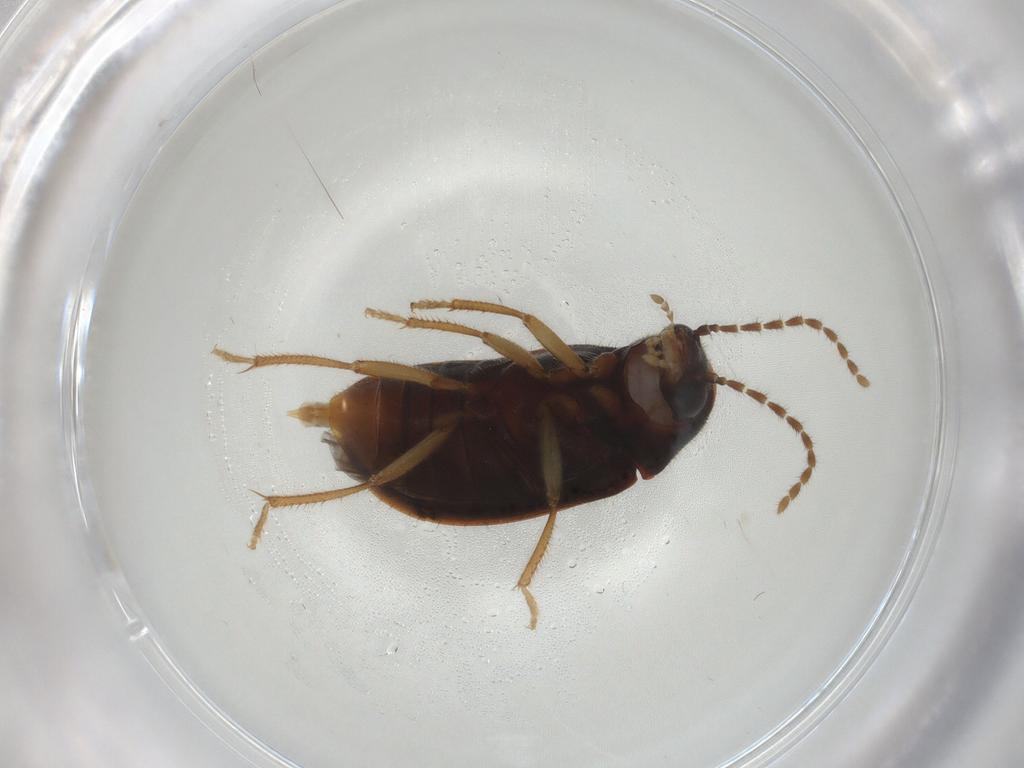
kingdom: Animalia
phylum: Arthropoda
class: Insecta
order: Coleoptera
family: Ptilodactylidae
